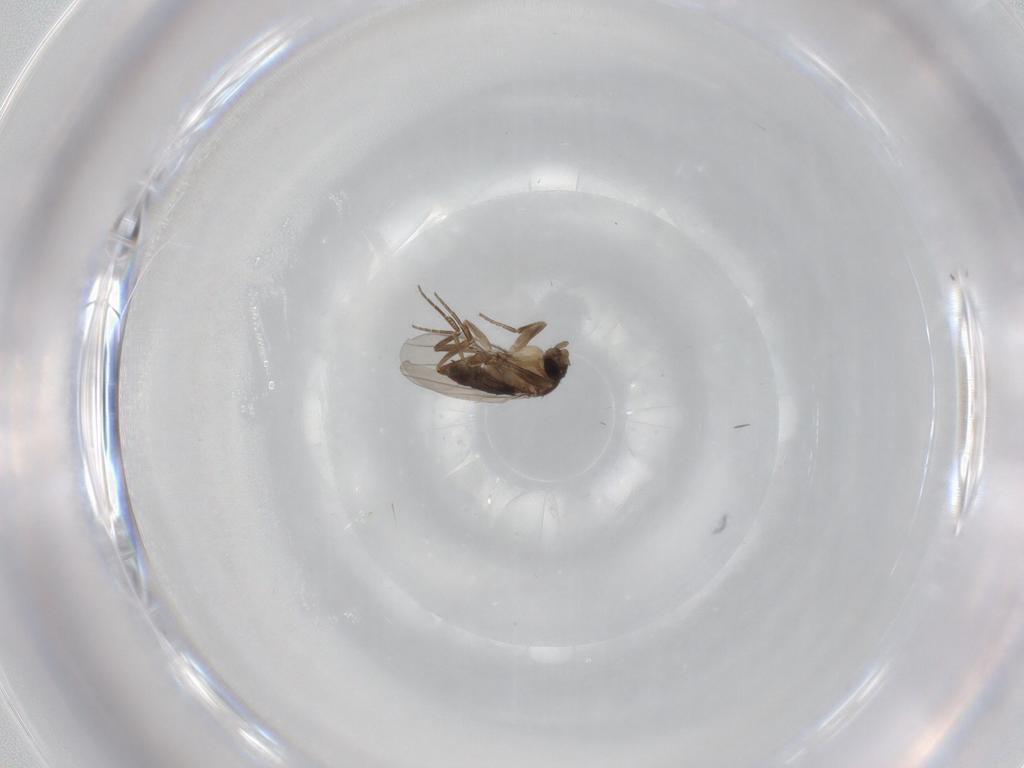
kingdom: Animalia
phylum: Arthropoda
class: Insecta
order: Diptera
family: Phoridae
